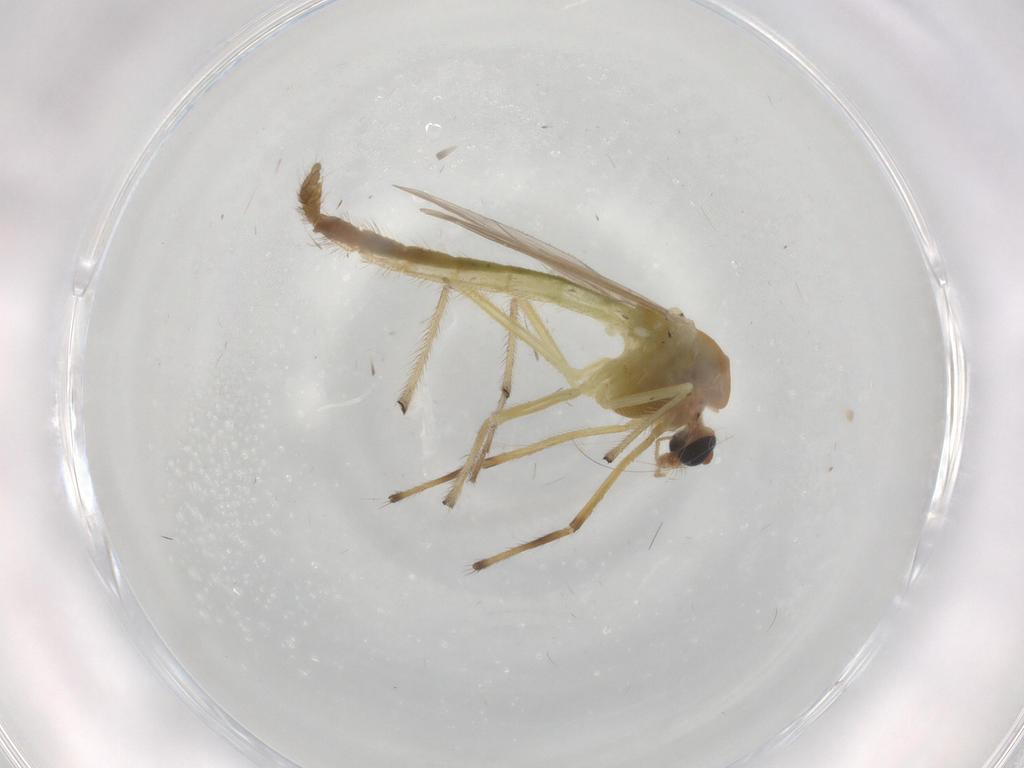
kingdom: Animalia
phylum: Arthropoda
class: Insecta
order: Diptera
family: Chironomidae
